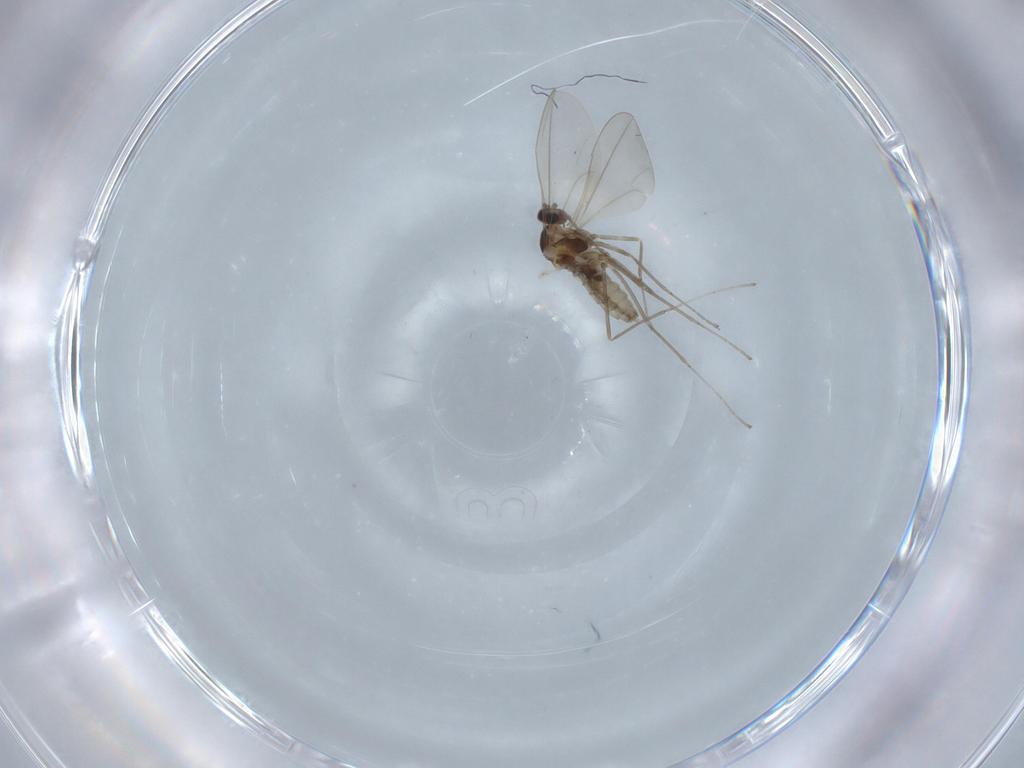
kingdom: Animalia
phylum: Arthropoda
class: Insecta
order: Diptera
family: Cecidomyiidae
